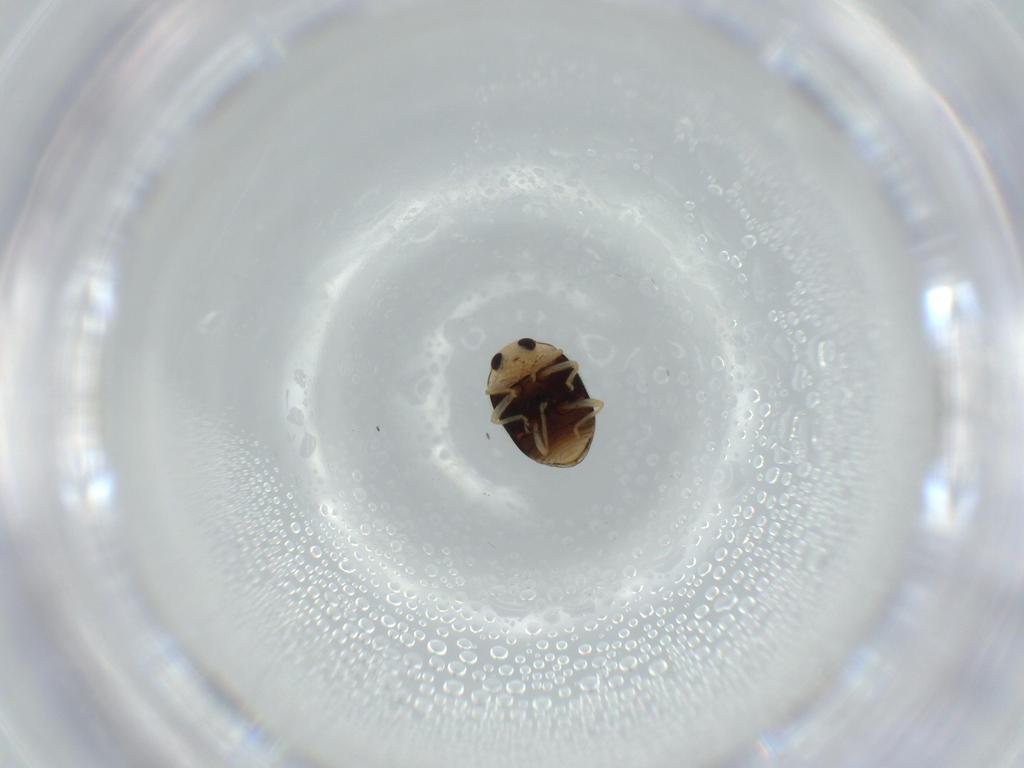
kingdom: Animalia
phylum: Arthropoda
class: Insecta
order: Coleoptera
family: Coccinellidae
